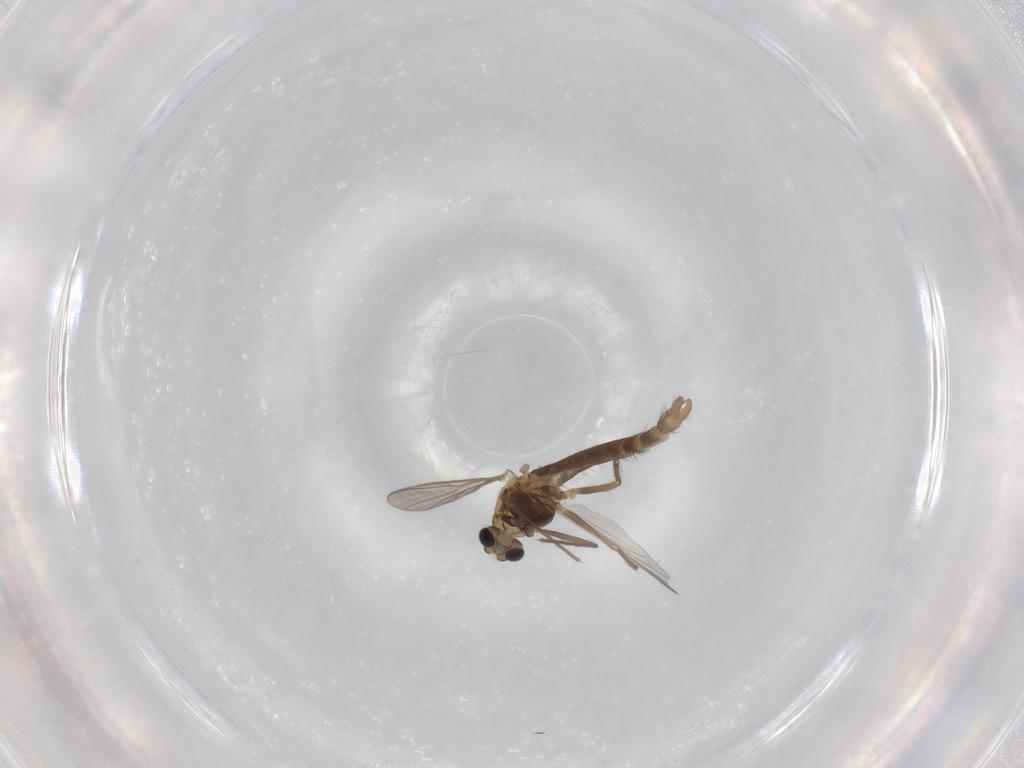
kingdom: Animalia
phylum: Arthropoda
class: Insecta
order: Diptera
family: Chironomidae
